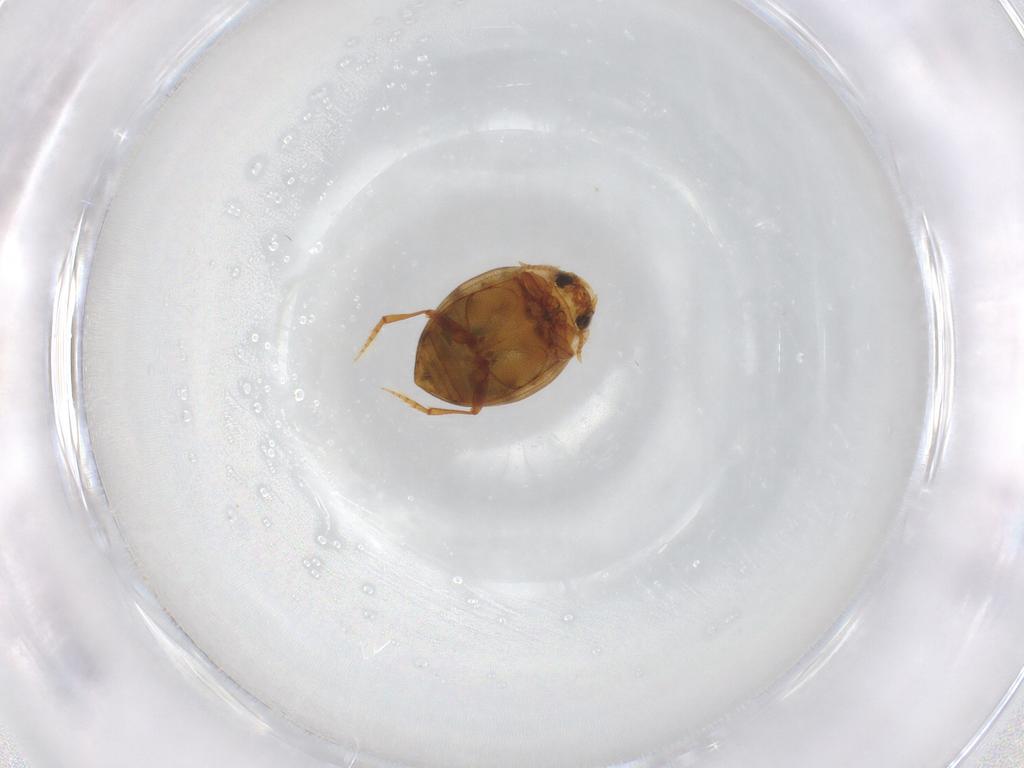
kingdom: Animalia
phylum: Arthropoda
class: Insecta
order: Coleoptera
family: Dytiscidae
